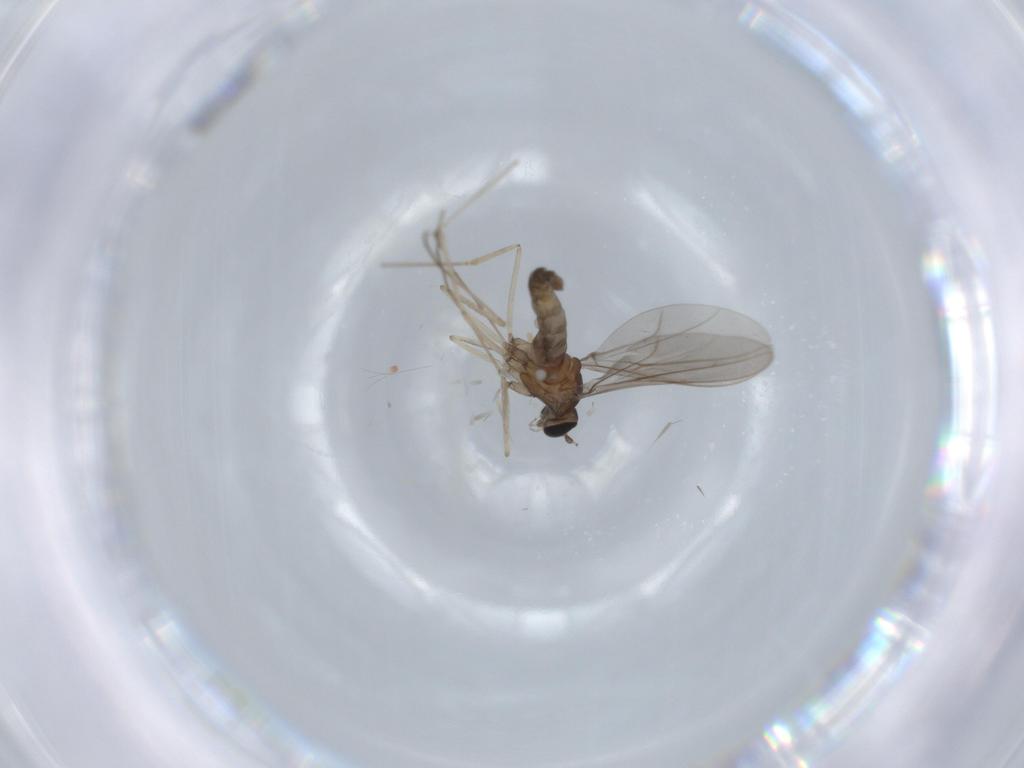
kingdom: Animalia
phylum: Arthropoda
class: Insecta
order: Diptera
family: Cecidomyiidae
